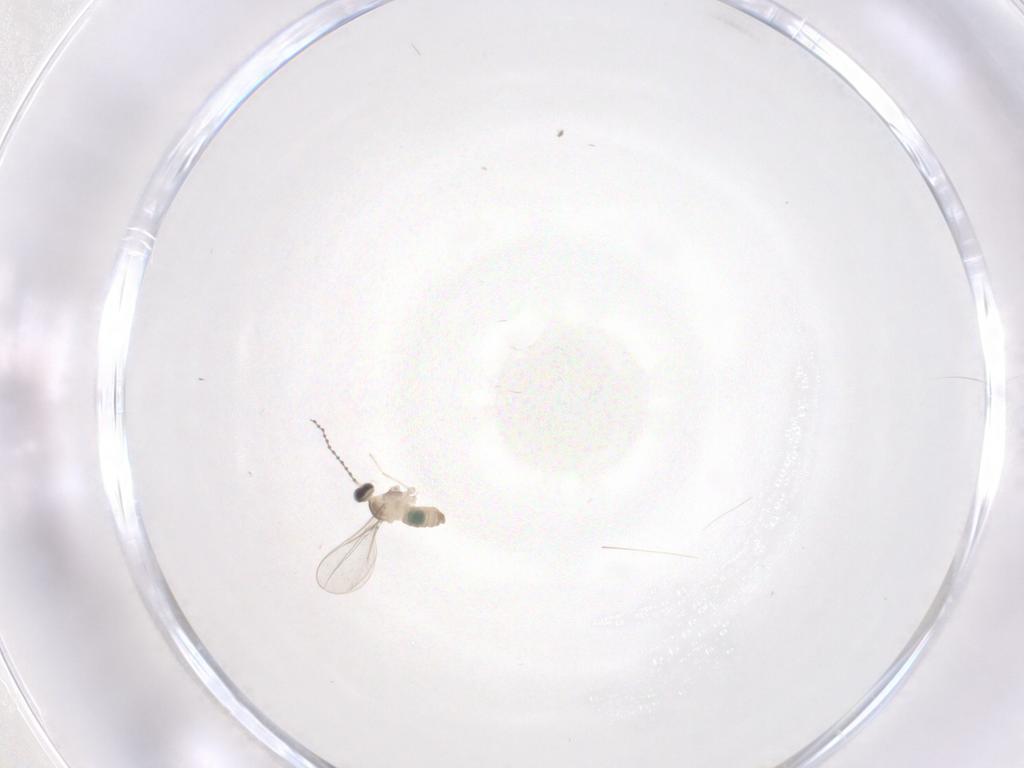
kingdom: Animalia
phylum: Arthropoda
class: Insecta
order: Diptera
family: Cecidomyiidae
